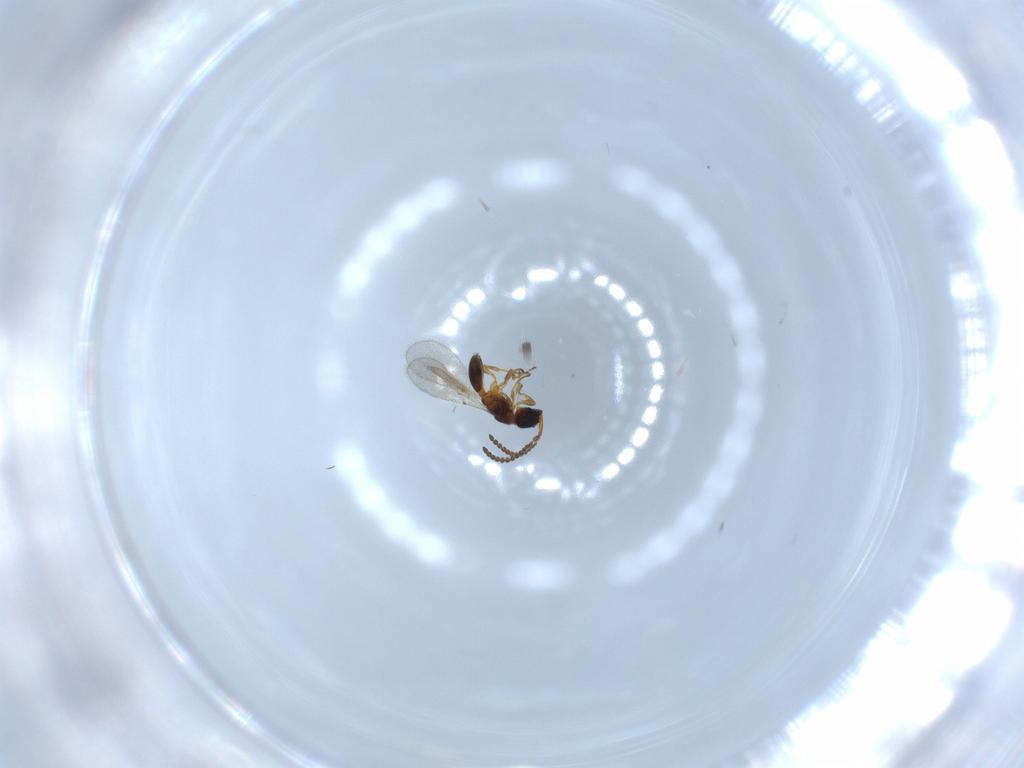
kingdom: Animalia
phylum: Arthropoda
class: Insecta
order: Hymenoptera
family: Diapriidae
